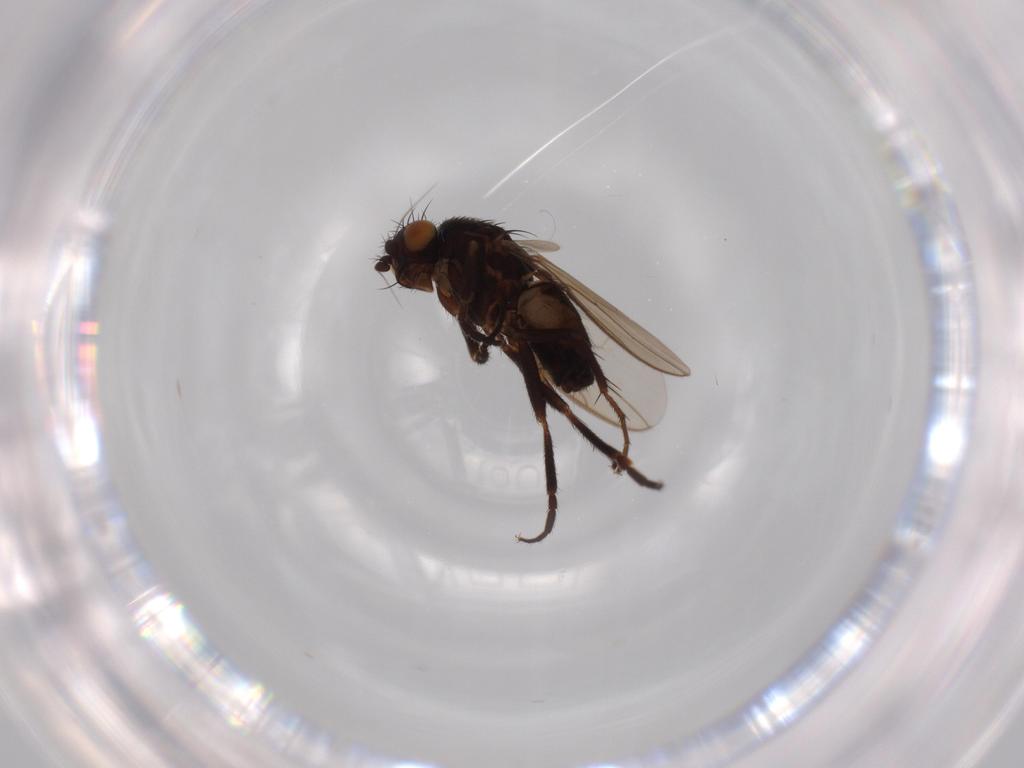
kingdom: Animalia
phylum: Arthropoda
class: Insecta
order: Diptera
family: Sphaeroceridae
